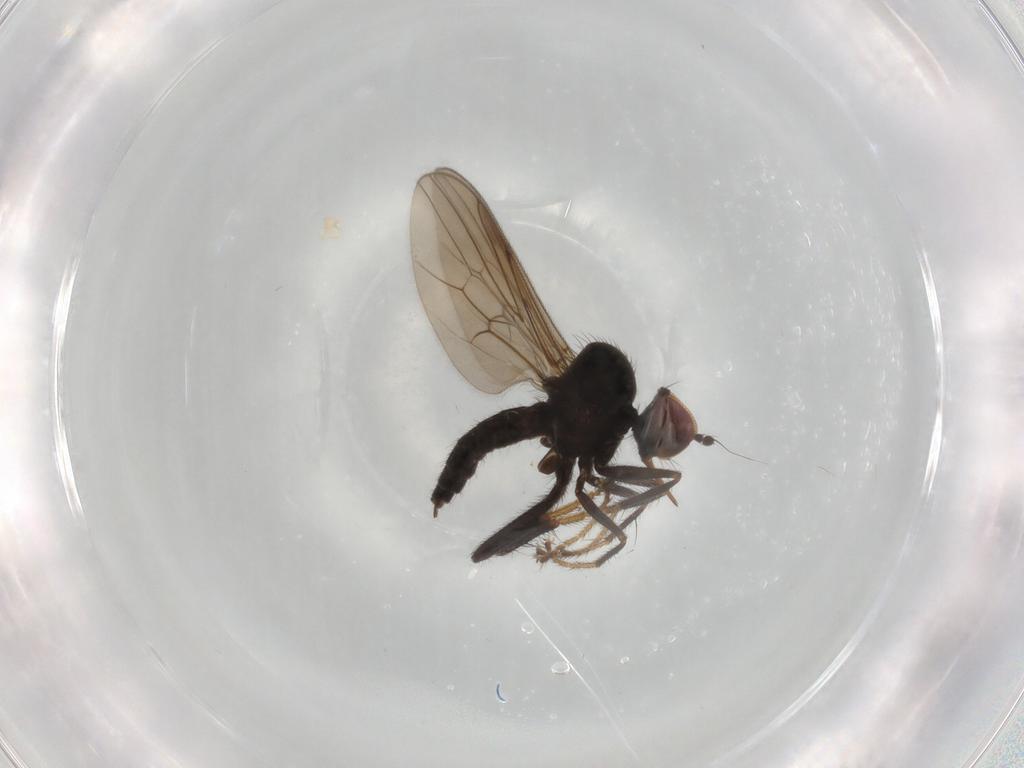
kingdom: Animalia
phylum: Arthropoda
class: Insecta
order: Diptera
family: Hybotidae
